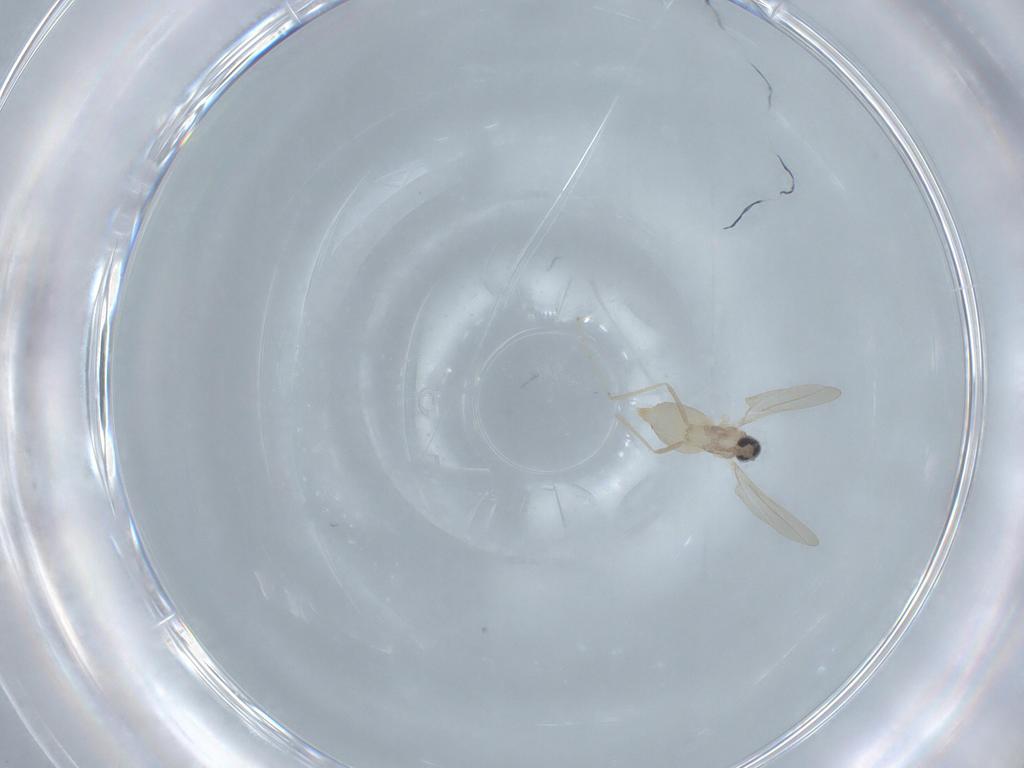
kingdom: Animalia
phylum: Arthropoda
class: Insecta
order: Diptera
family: Cecidomyiidae
